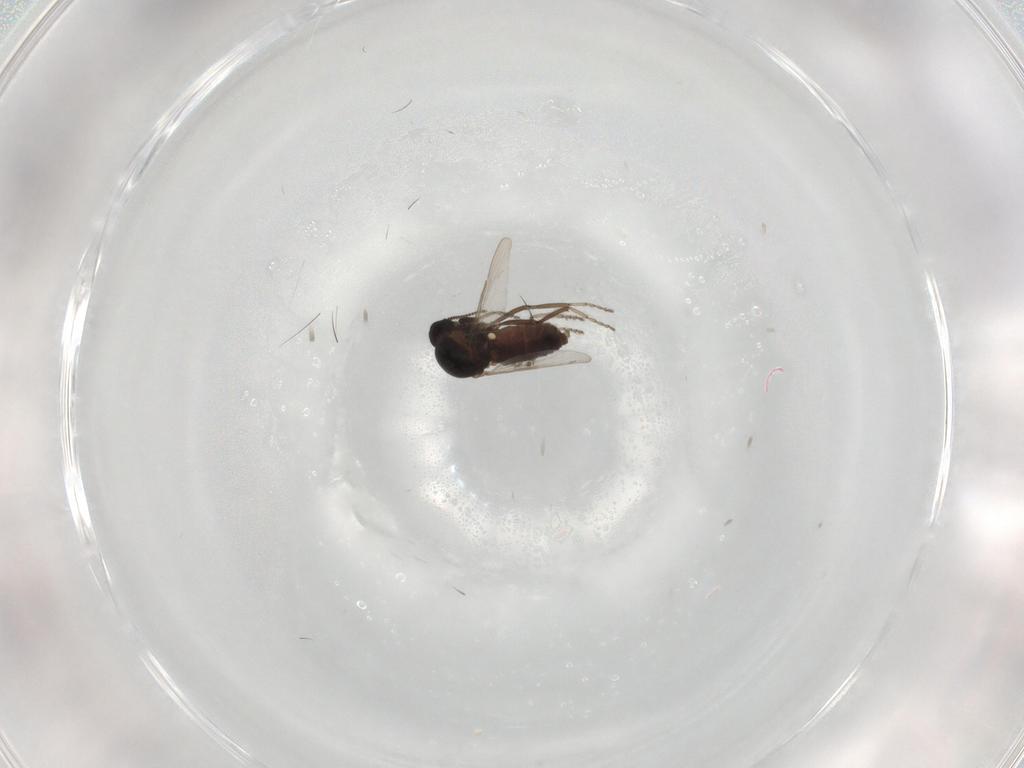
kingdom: Animalia
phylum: Arthropoda
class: Insecta
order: Diptera
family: Ceratopogonidae
